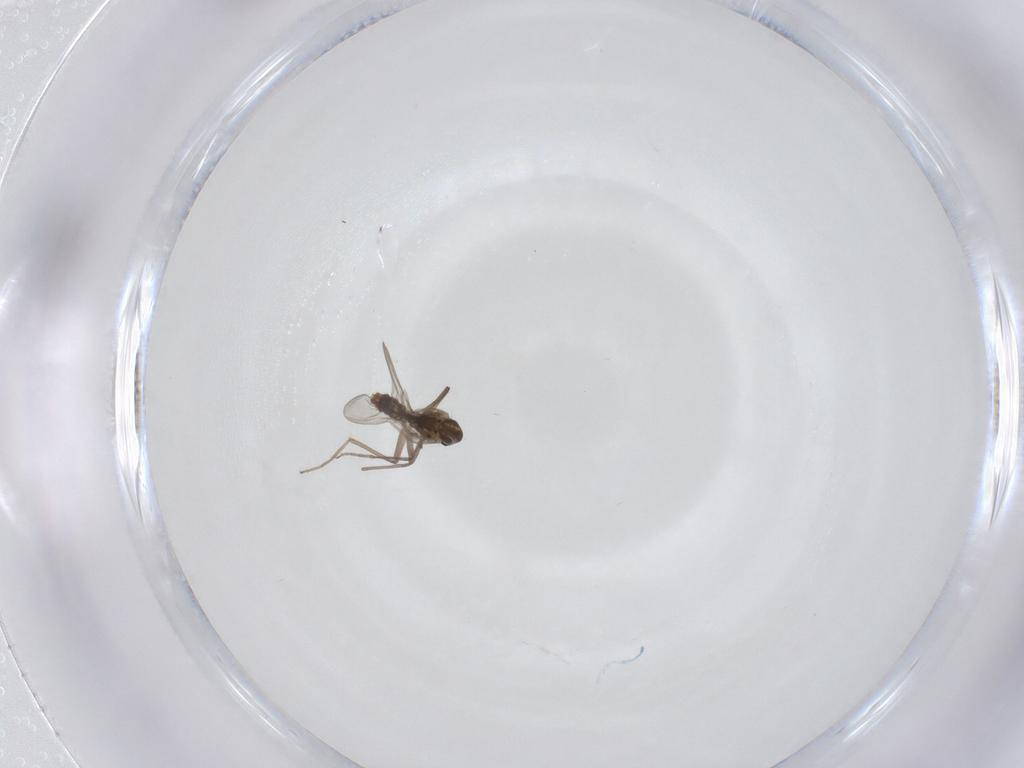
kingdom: Animalia
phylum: Arthropoda
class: Insecta
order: Diptera
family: Chironomidae
